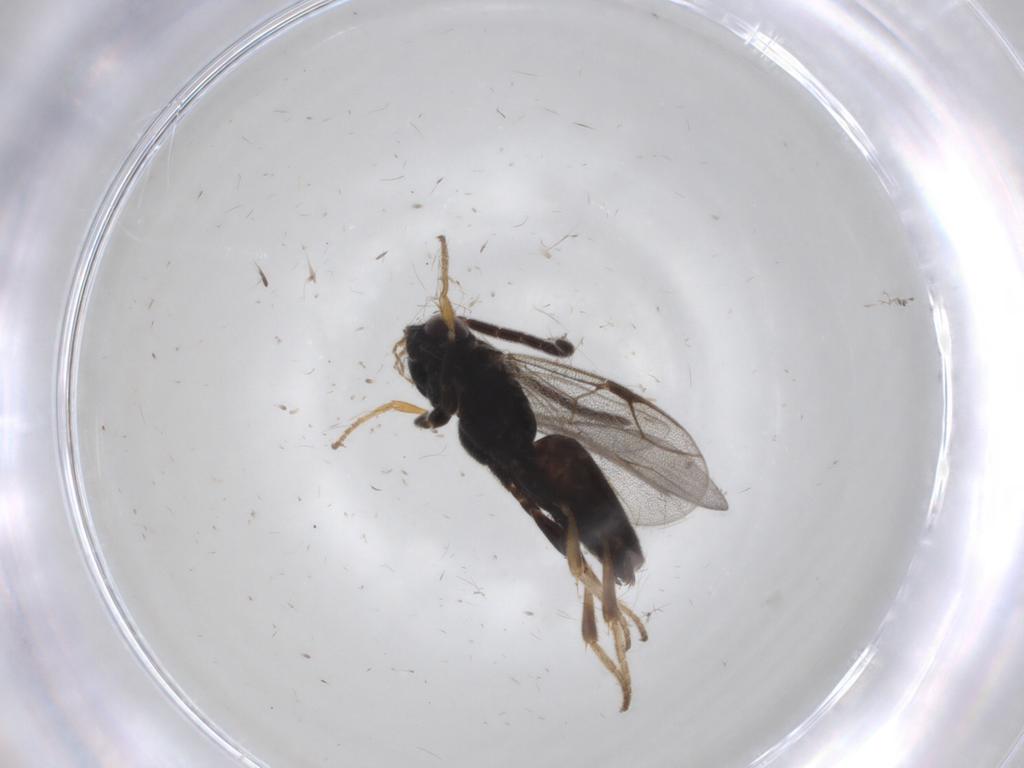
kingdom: Animalia
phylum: Arthropoda
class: Insecta
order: Hymenoptera
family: Dryinidae
